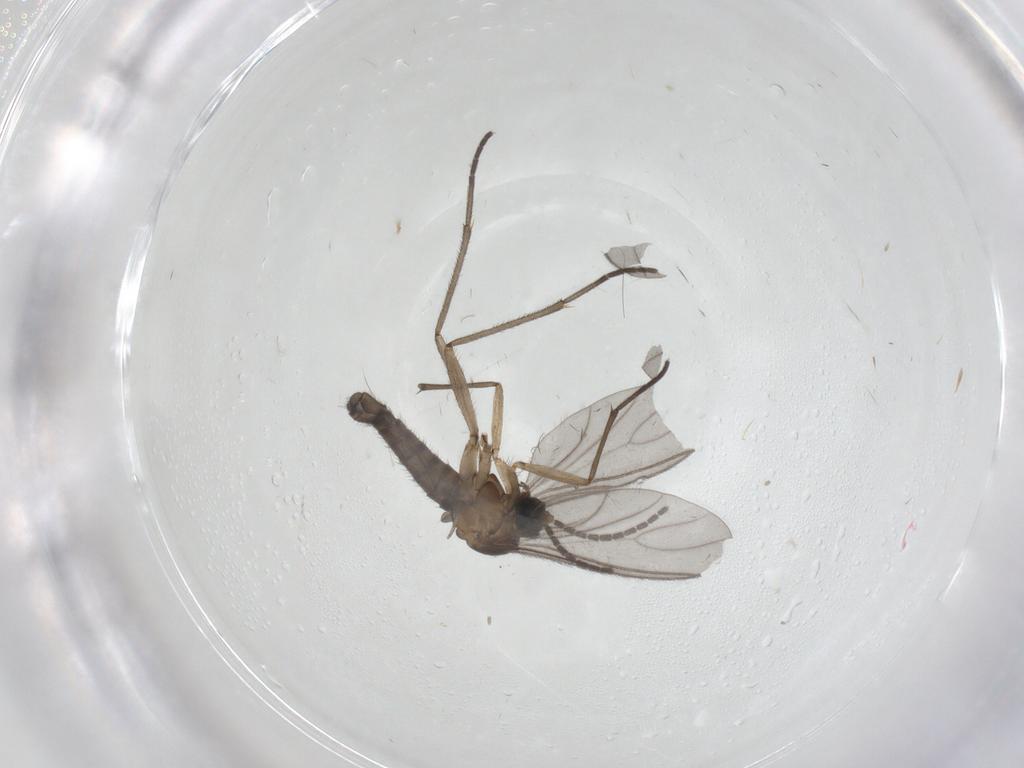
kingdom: Animalia
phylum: Arthropoda
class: Insecta
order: Diptera
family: Sciaridae
